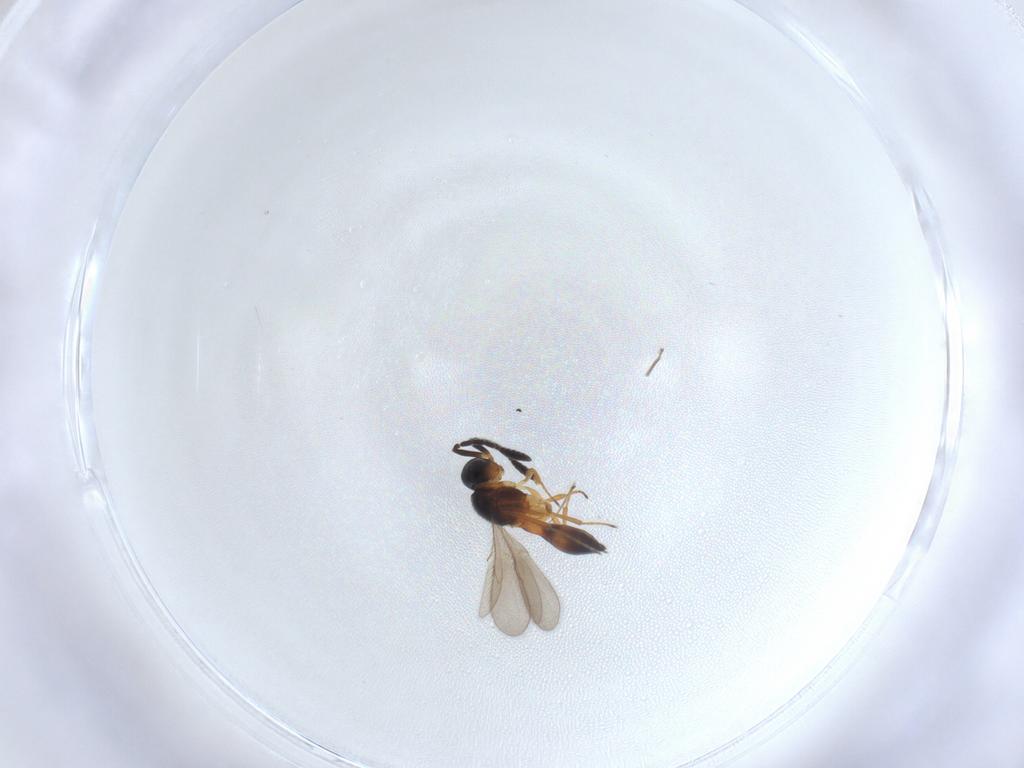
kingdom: Animalia
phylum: Arthropoda
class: Insecta
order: Hymenoptera
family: Scelionidae
